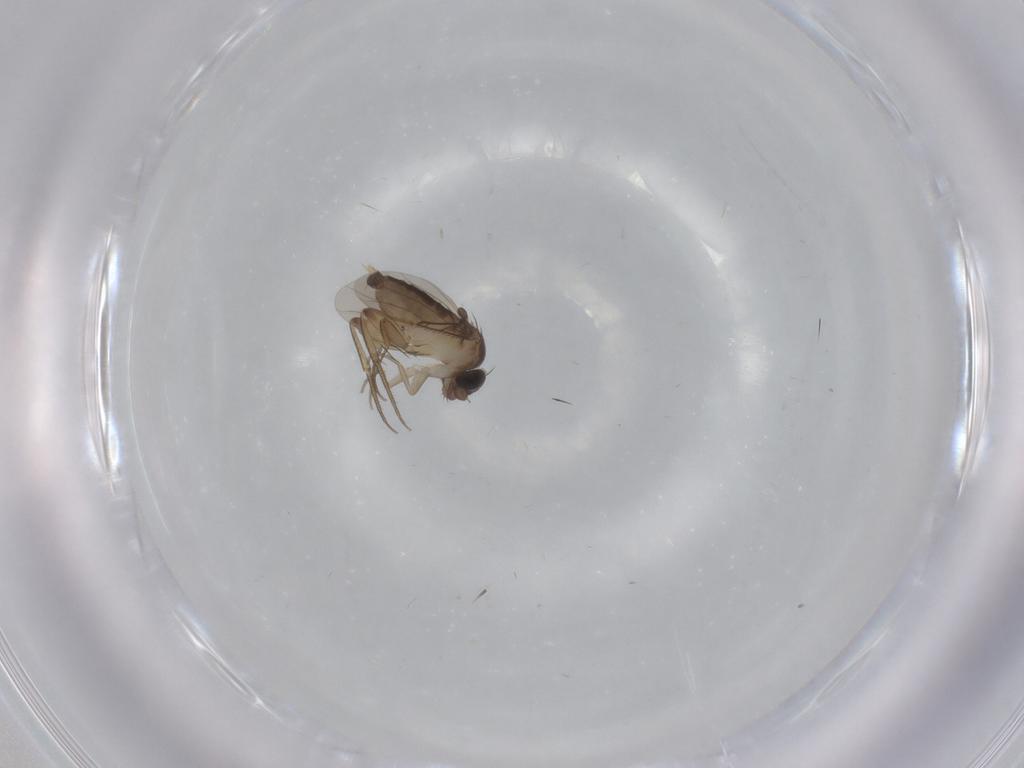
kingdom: Animalia
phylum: Arthropoda
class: Insecta
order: Diptera
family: Phoridae
